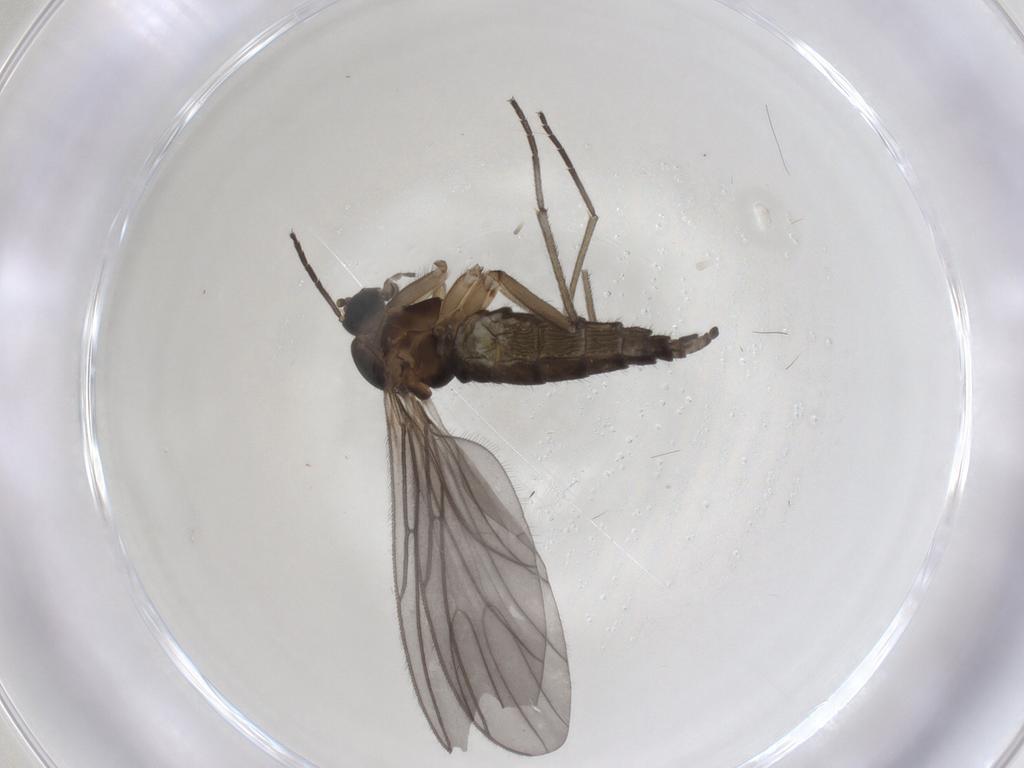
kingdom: Animalia
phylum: Arthropoda
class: Insecta
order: Diptera
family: Sciaridae
